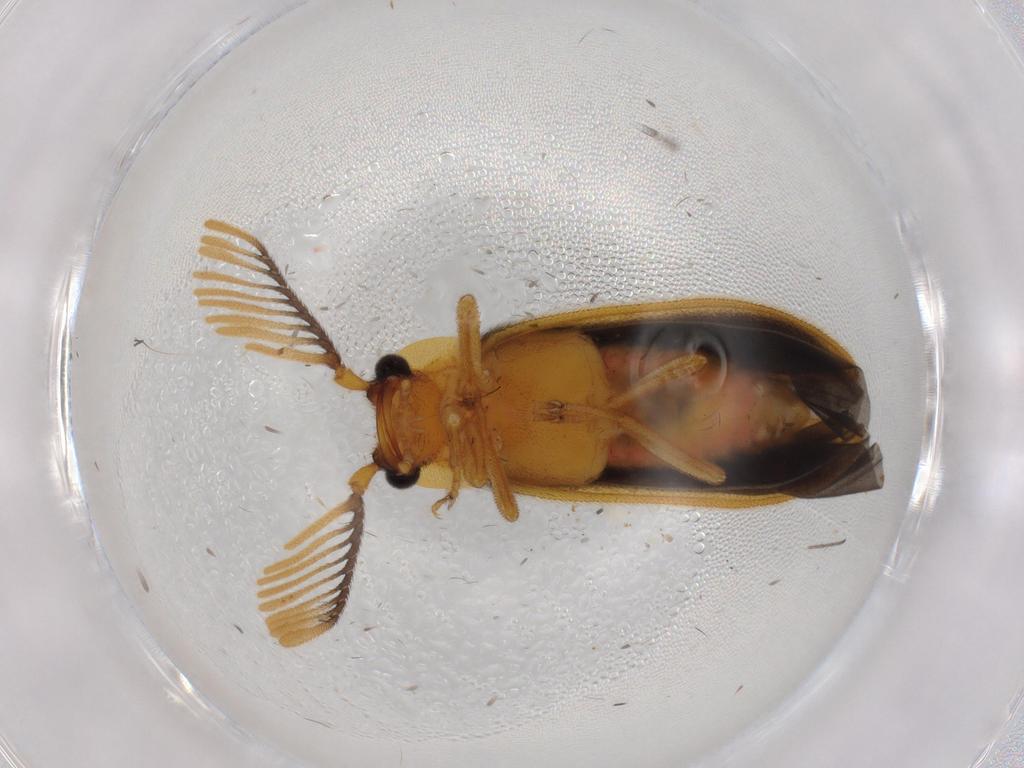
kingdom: Animalia
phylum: Arthropoda
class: Insecta
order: Coleoptera
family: Lampyridae
